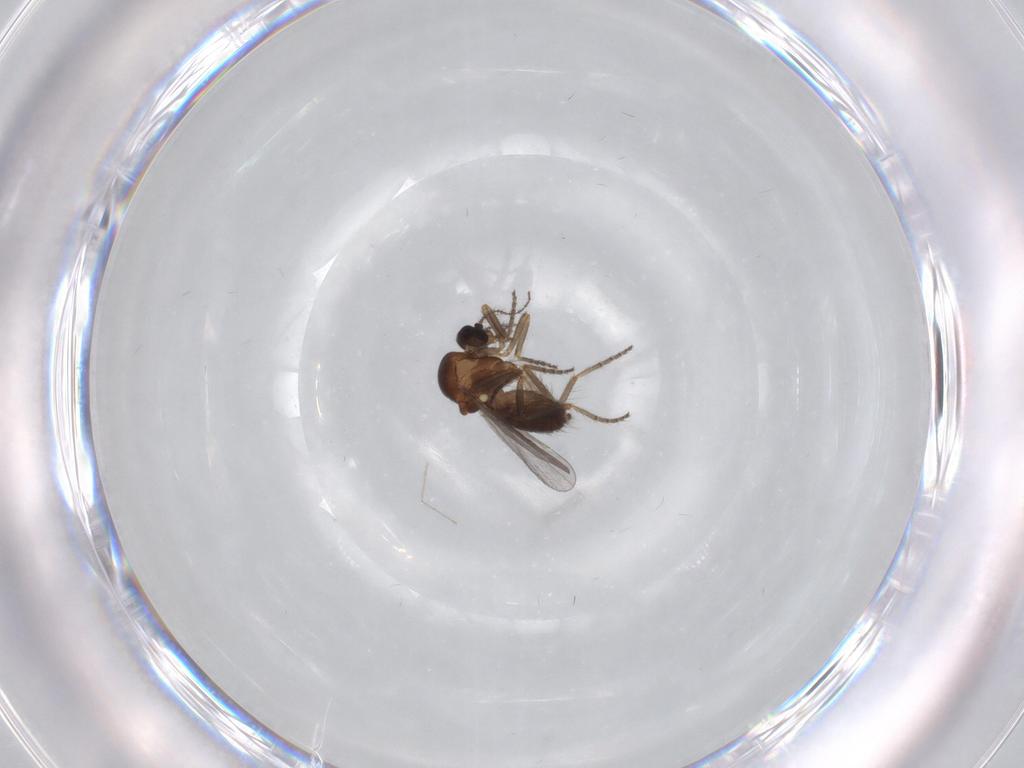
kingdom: Animalia
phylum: Arthropoda
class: Insecta
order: Diptera
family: Ceratopogonidae
